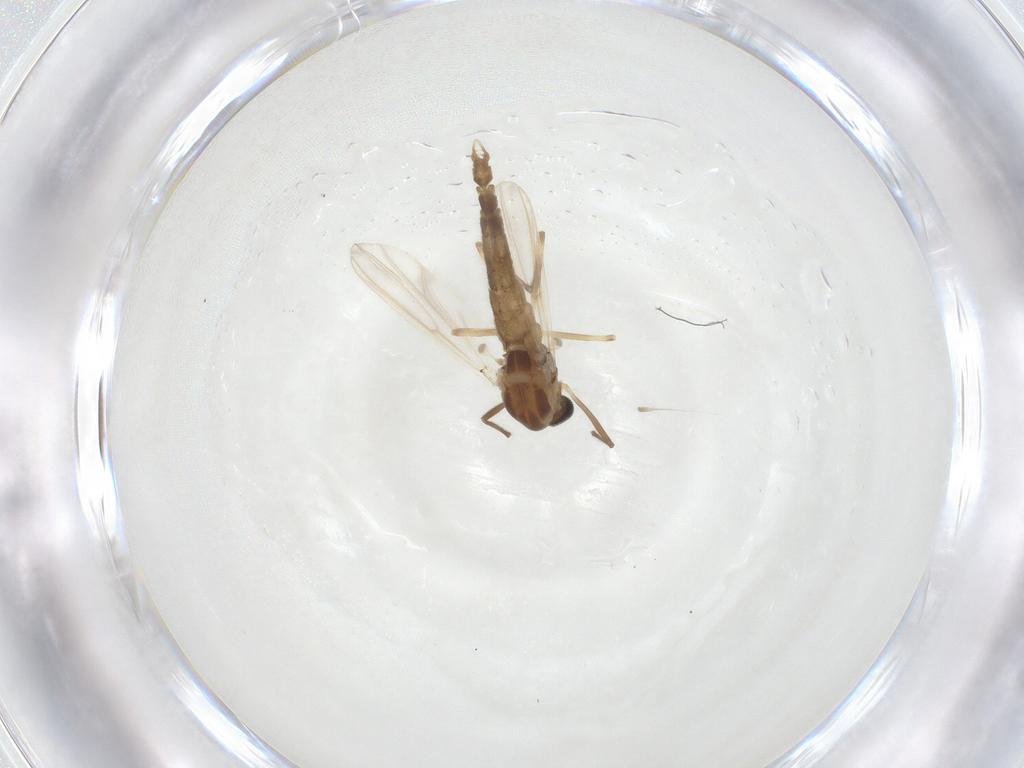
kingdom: Animalia
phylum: Arthropoda
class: Insecta
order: Diptera
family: Chironomidae
